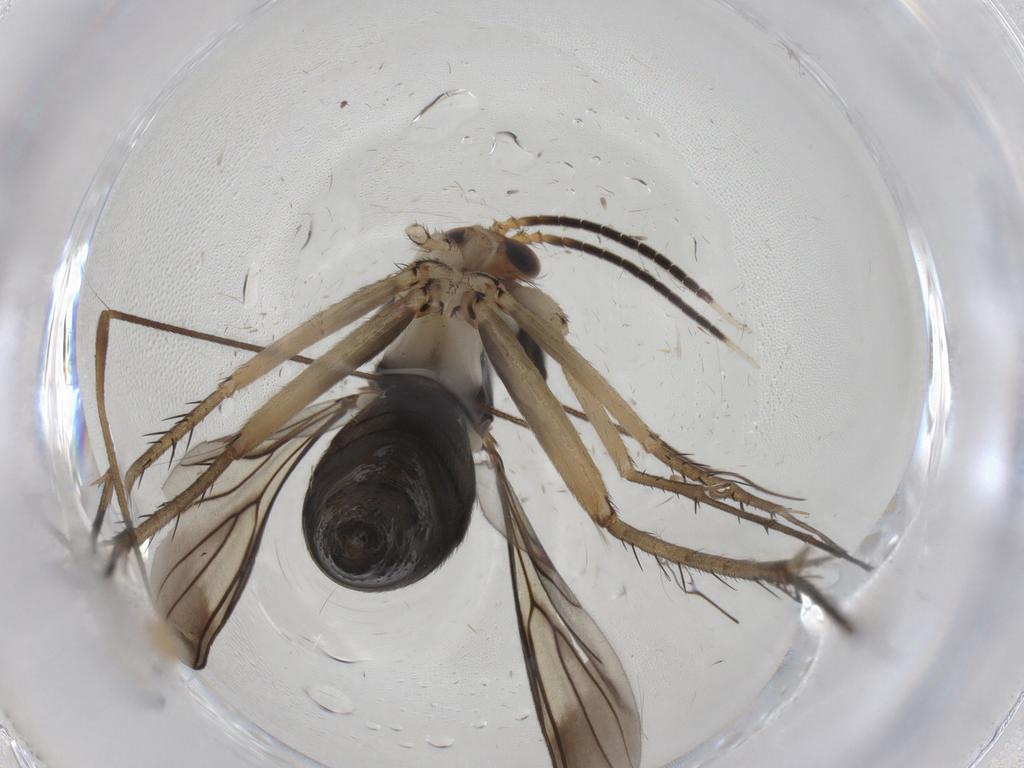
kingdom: Animalia
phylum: Arthropoda
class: Insecta
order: Diptera
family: Mycetophilidae
